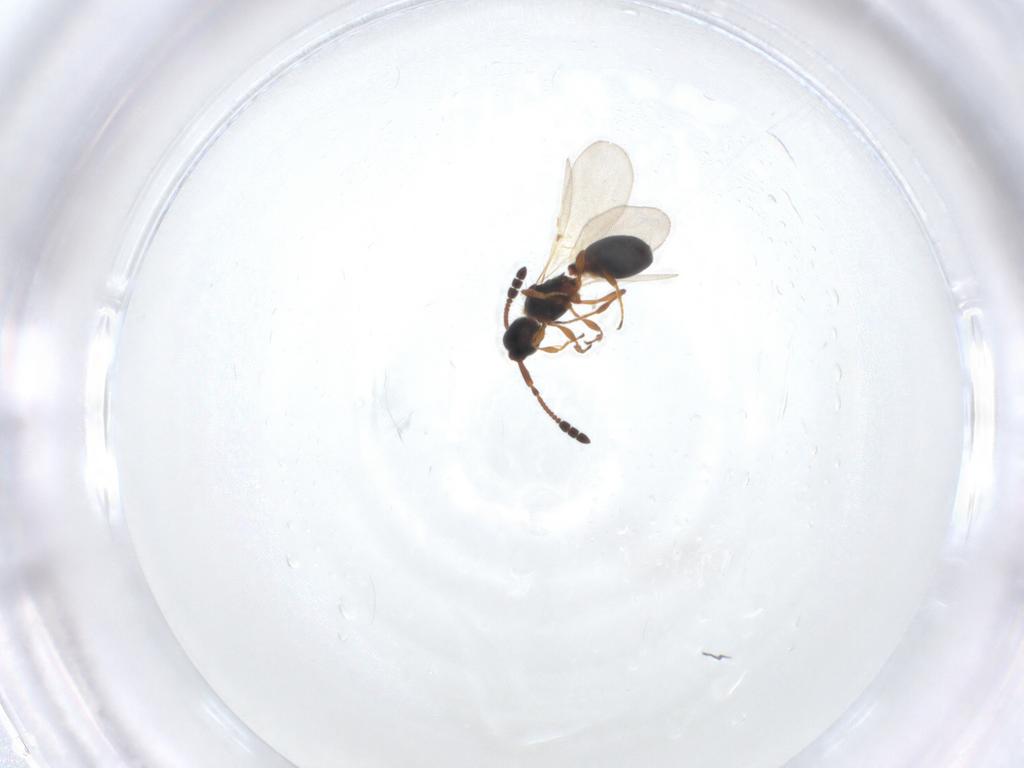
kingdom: Animalia
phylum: Arthropoda
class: Insecta
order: Hymenoptera
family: Diapriidae
